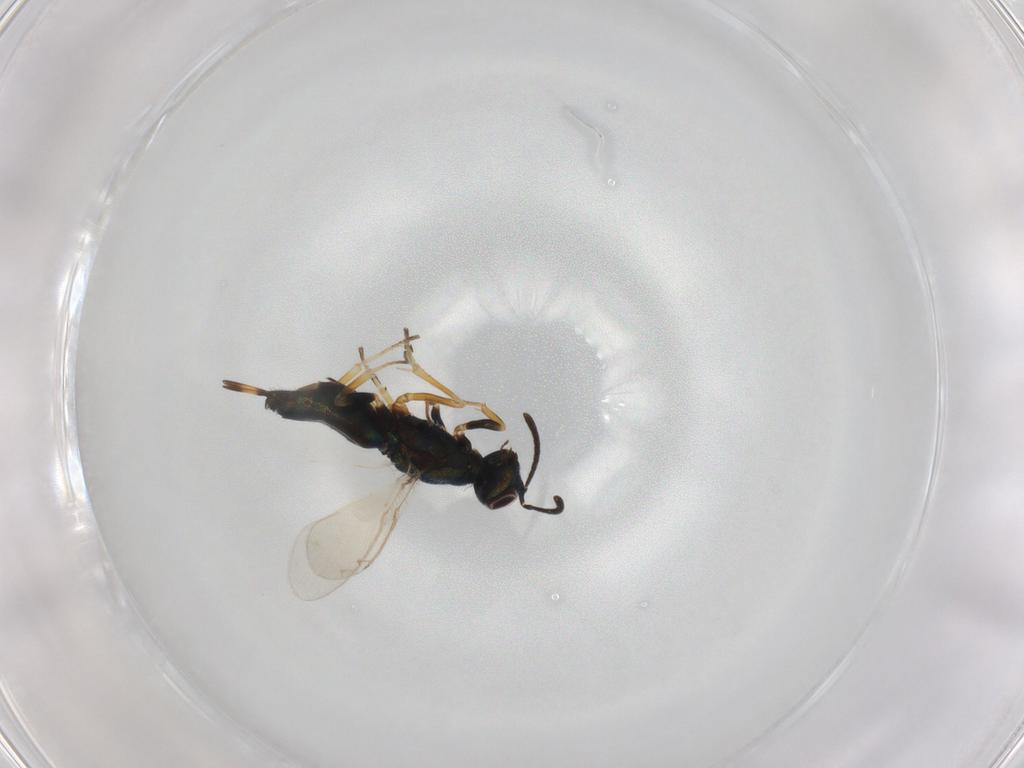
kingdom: Animalia
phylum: Arthropoda
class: Insecta
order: Hymenoptera
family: Eupelmidae
